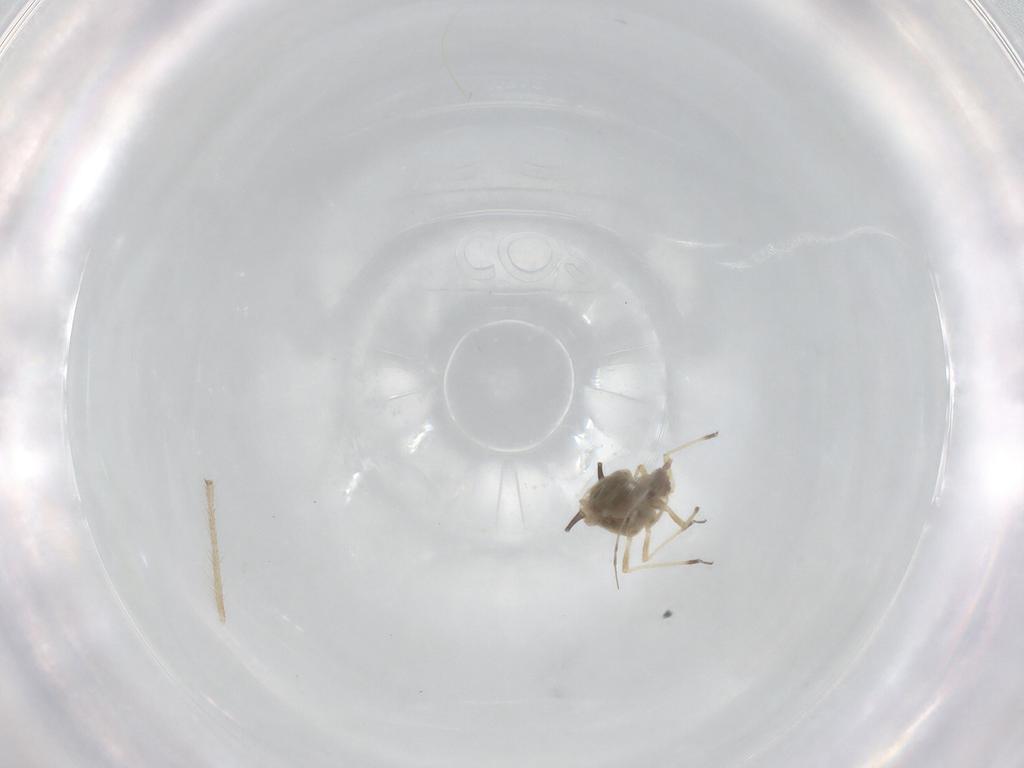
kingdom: Animalia
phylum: Arthropoda
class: Insecta
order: Hemiptera
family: Aphididae
